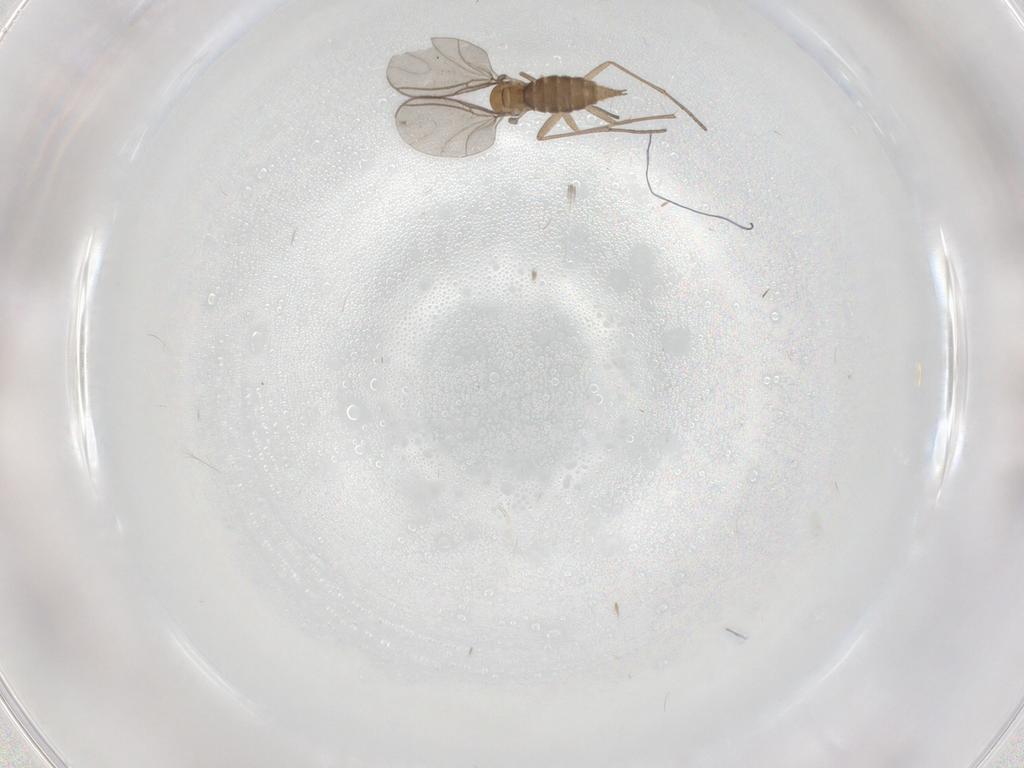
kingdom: Animalia
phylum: Arthropoda
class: Insecta
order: Diptera
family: Sciaridae
